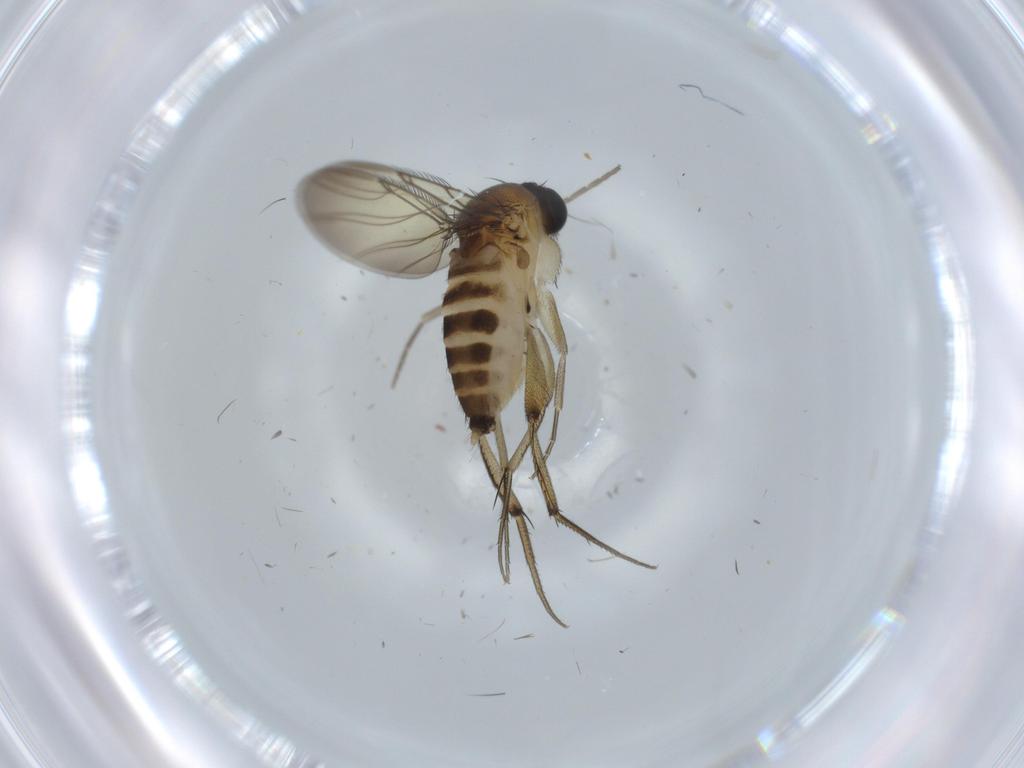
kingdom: Animalia
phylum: Arthropoda
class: Insecta
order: Diptera
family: Phoridae
